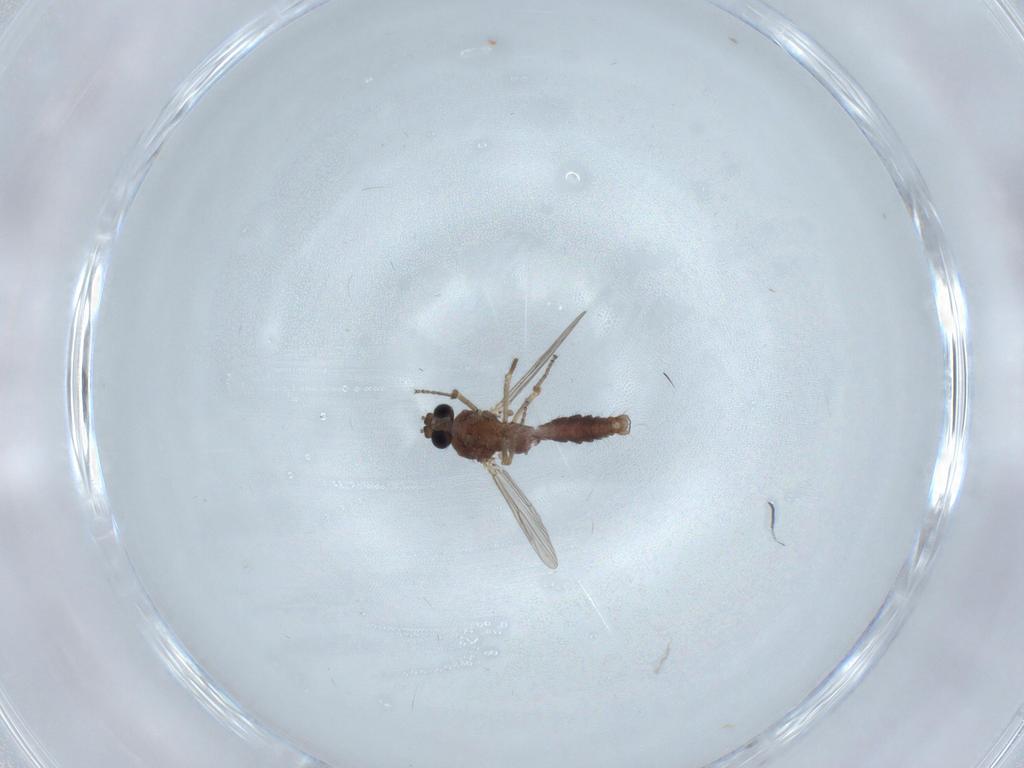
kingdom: Animalia
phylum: Arthropoda
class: Insecta
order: Diptera
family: Ceratopogonidae
